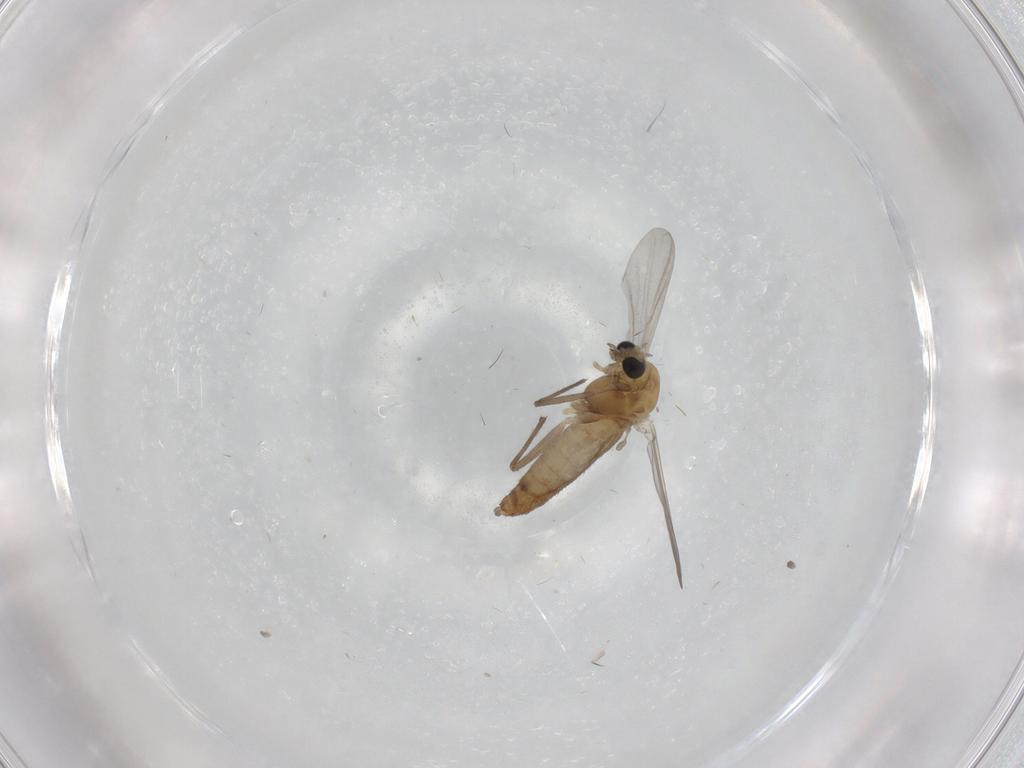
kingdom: Animalia
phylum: Arthropoda
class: Insecta
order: Diptera
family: Chironomidae
